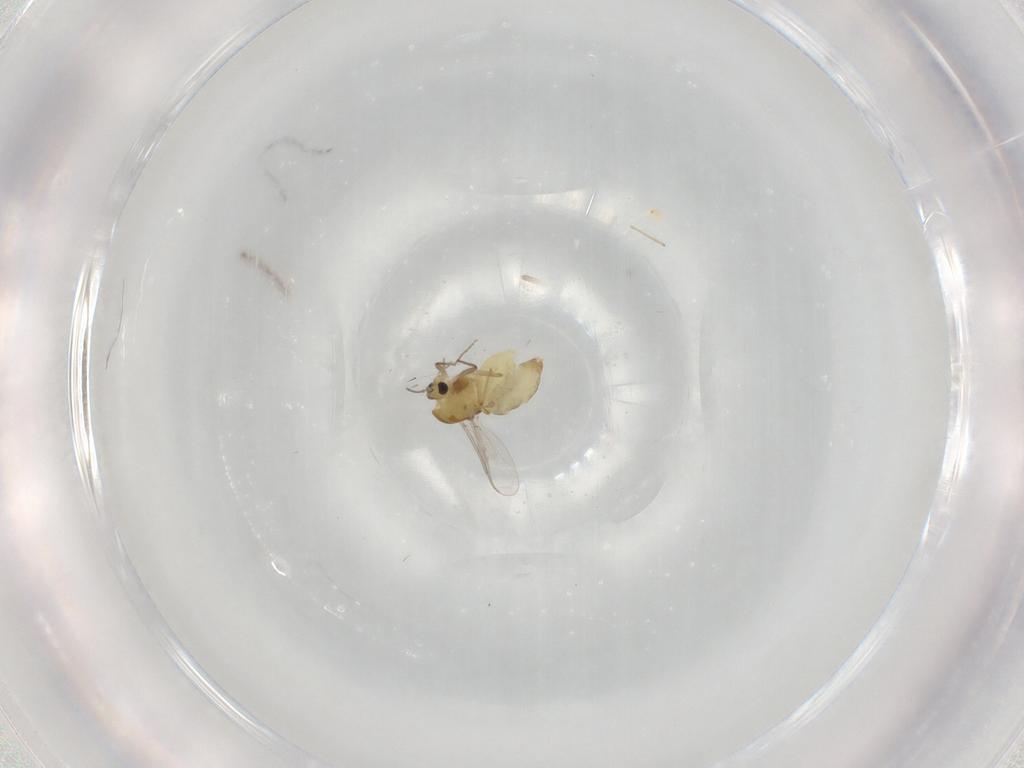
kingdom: Animalia
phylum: Arthropoda
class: Insecta
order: Diptera
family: Chironomidae
